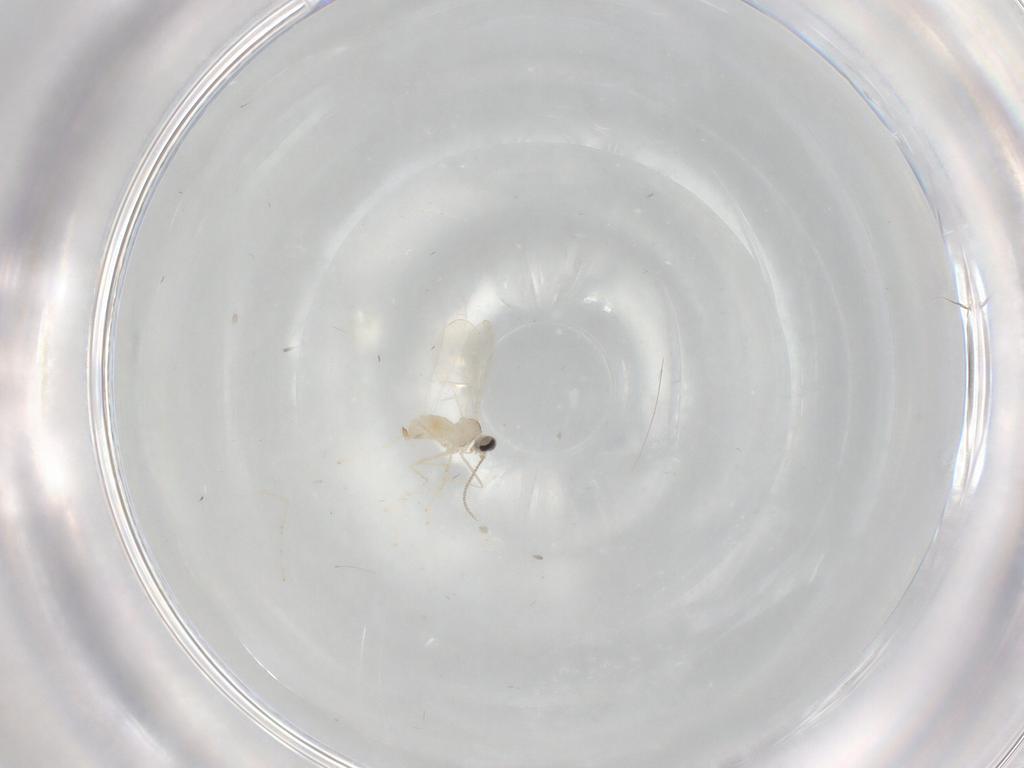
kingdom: Animalia
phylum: Arthropoda
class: Insecta
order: Diptera
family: Cecidomyiidae
